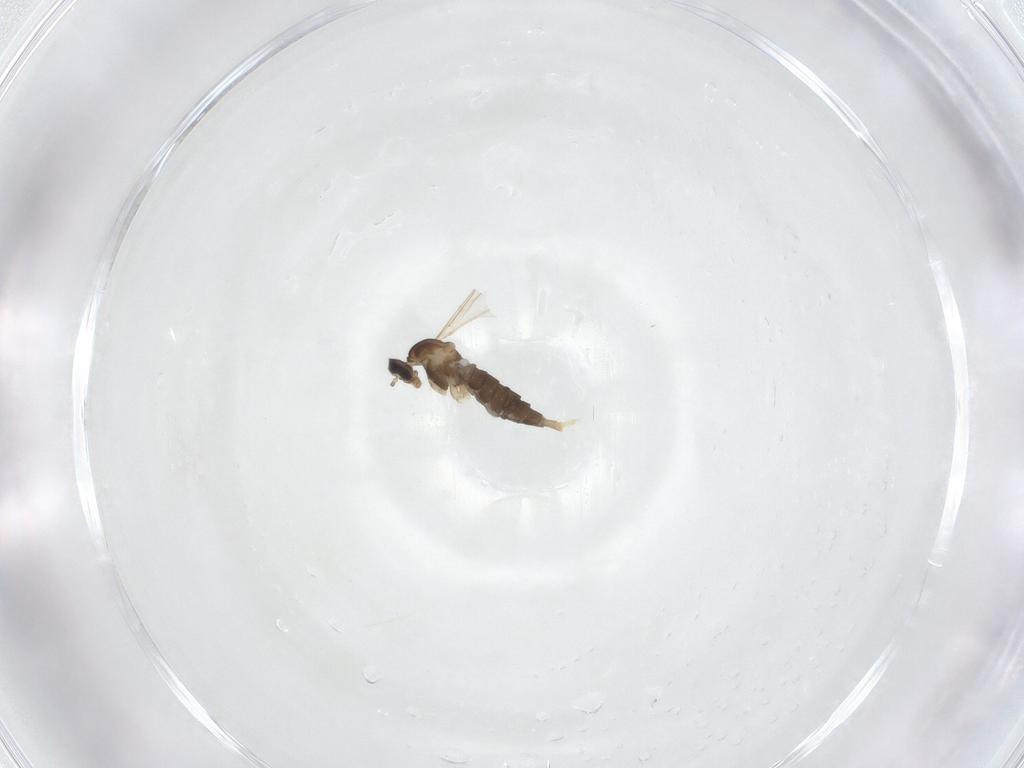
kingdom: Animalia
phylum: Arthropoda
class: Insecta
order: Diptera
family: Cecidomyiidae
